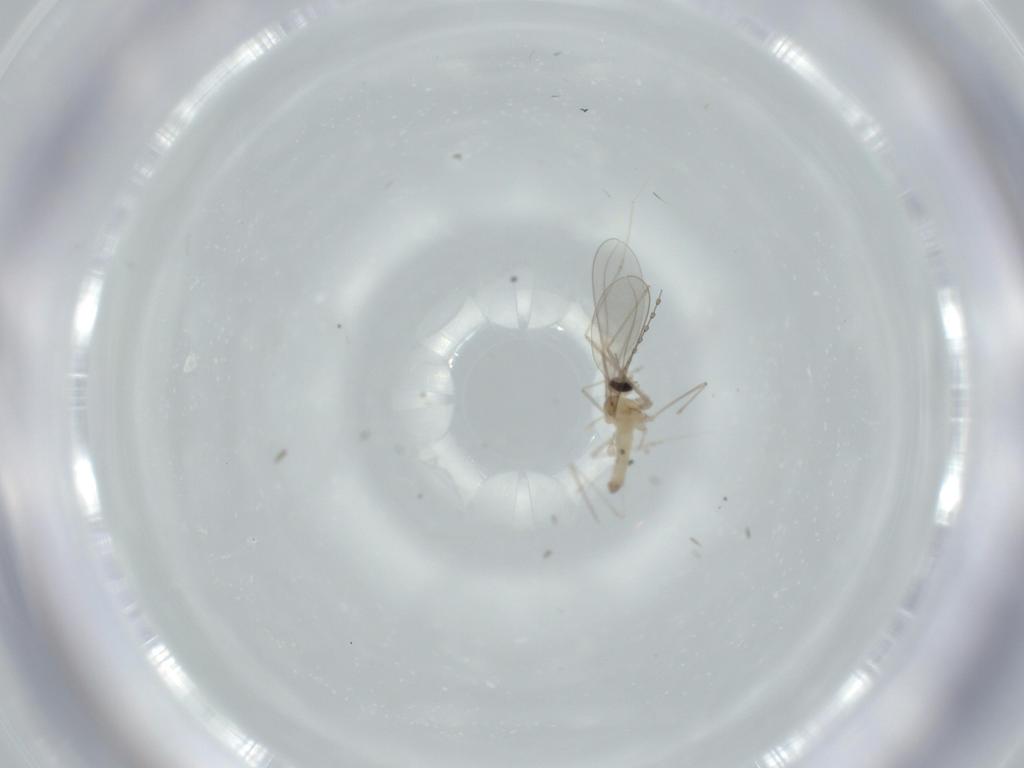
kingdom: Animalia
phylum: Arthropoda
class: Insecta
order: Diptera
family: Cecidomyiidae
